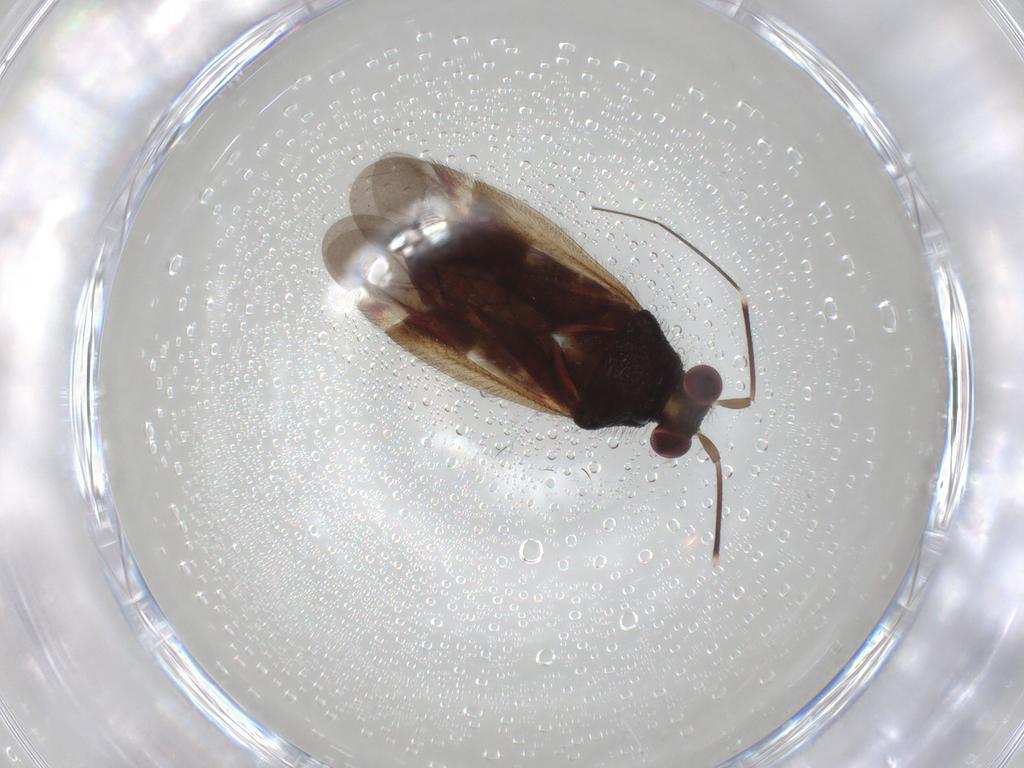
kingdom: Animalia
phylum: Arthropoda
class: Insecta
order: Hemiptera
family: Miridae
